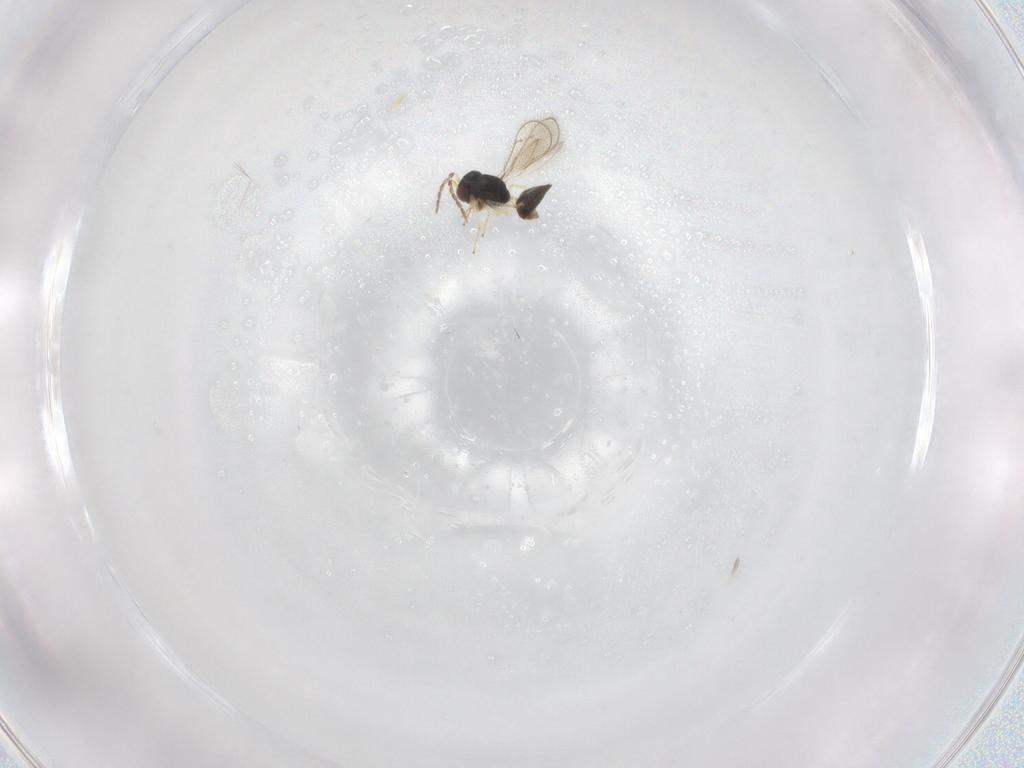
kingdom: Animalia
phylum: Arthropoda
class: Insecta
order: Hymenoptera
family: Eulophidae
